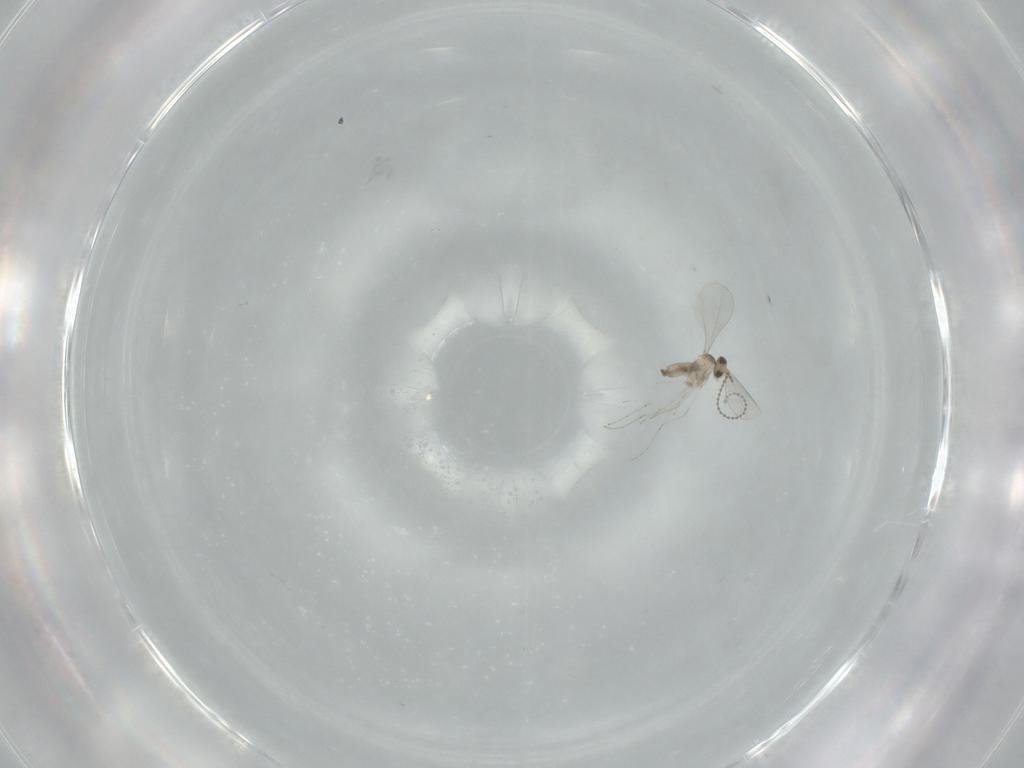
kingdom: Animalia
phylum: Arthropoda
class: Insecta
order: Diptera
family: Cecidomyiidae
